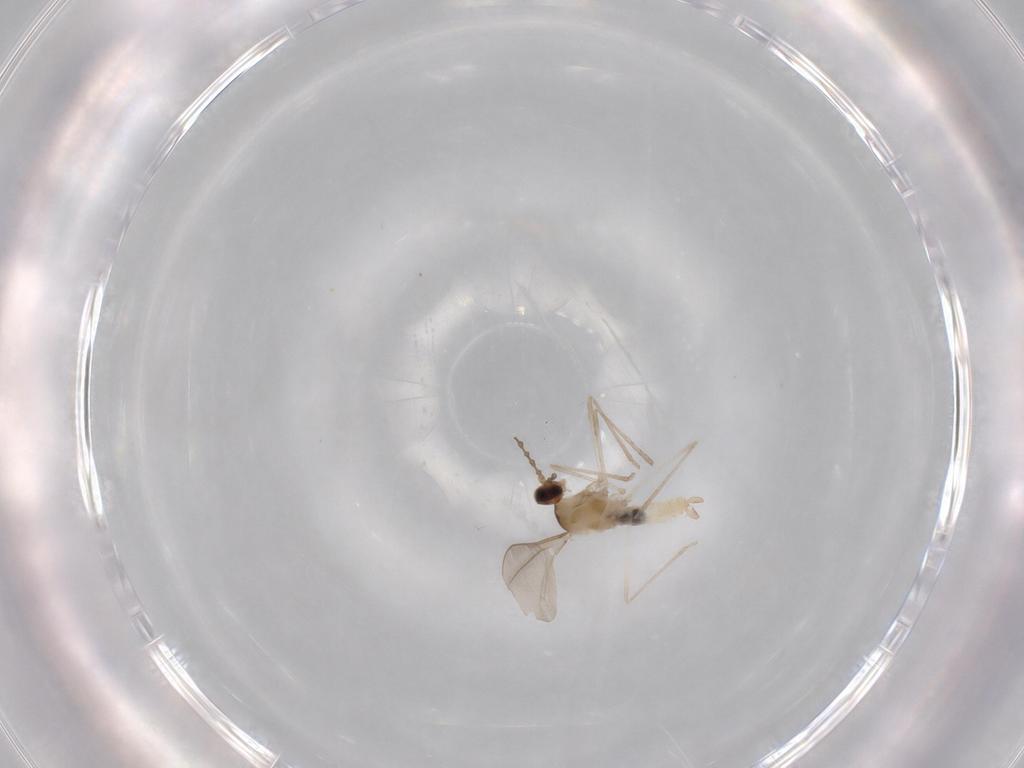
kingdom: Animalia
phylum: Arthropoda
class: Insecta
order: Diptera
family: Cecidomyiidae
